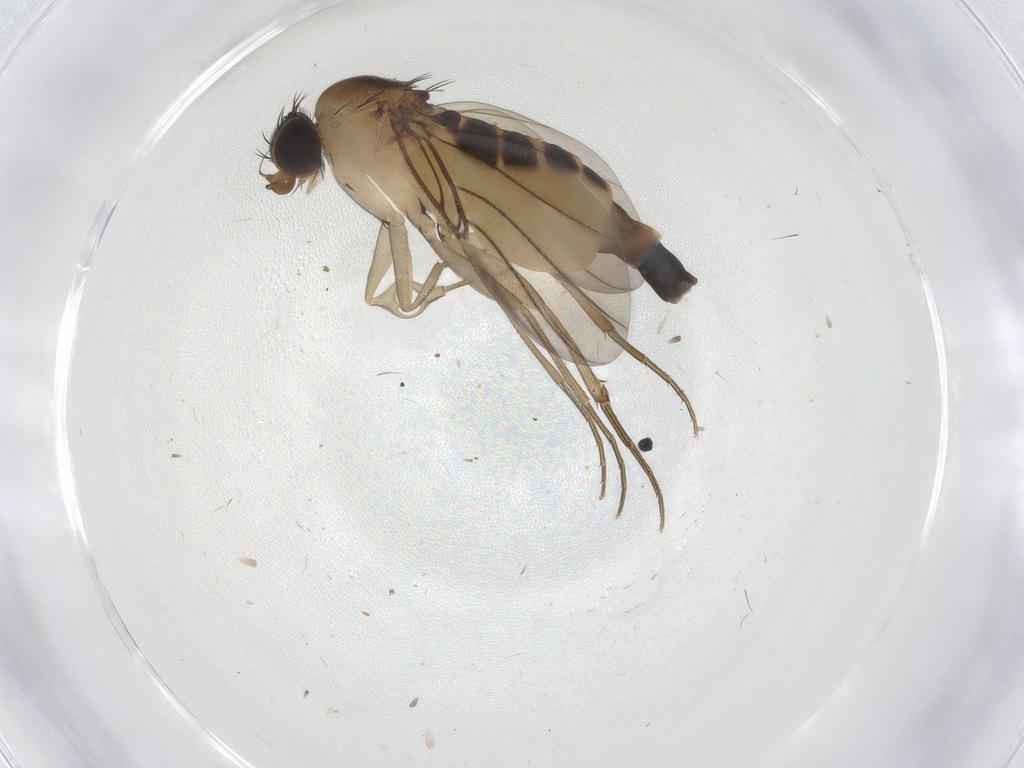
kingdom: Animalia
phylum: Arthropoda
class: Insecta
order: Diptera
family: Phoridae
